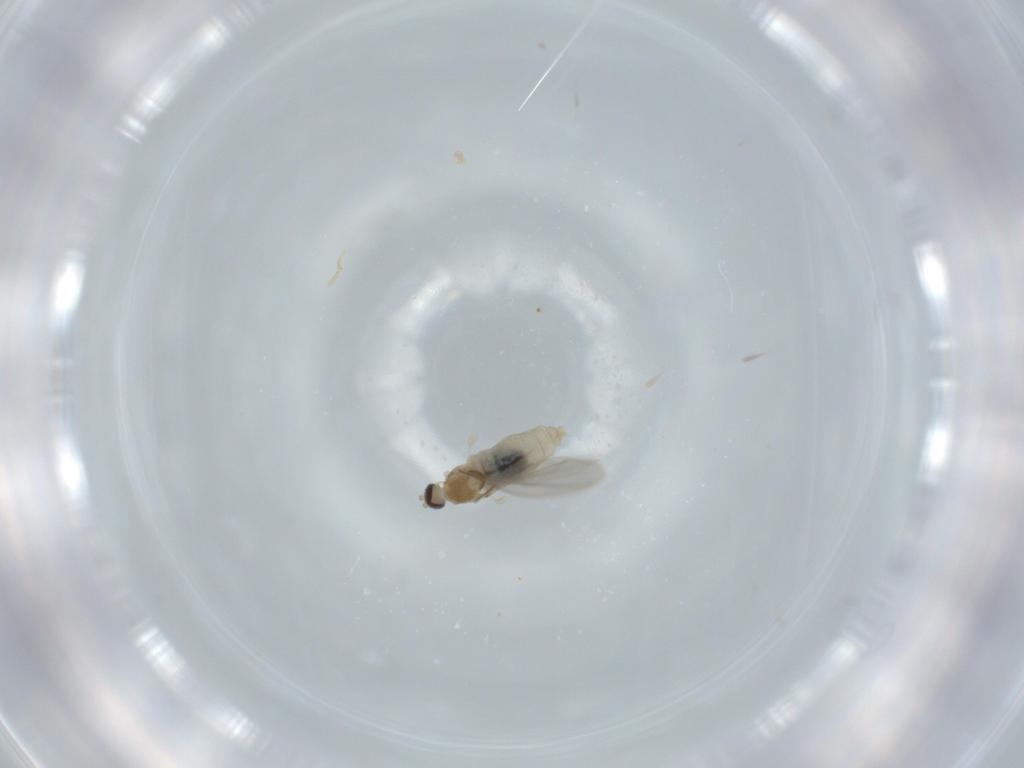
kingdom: Animalia
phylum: Arthropoda
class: Insecta
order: Diptera
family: Cecidomyiidae
